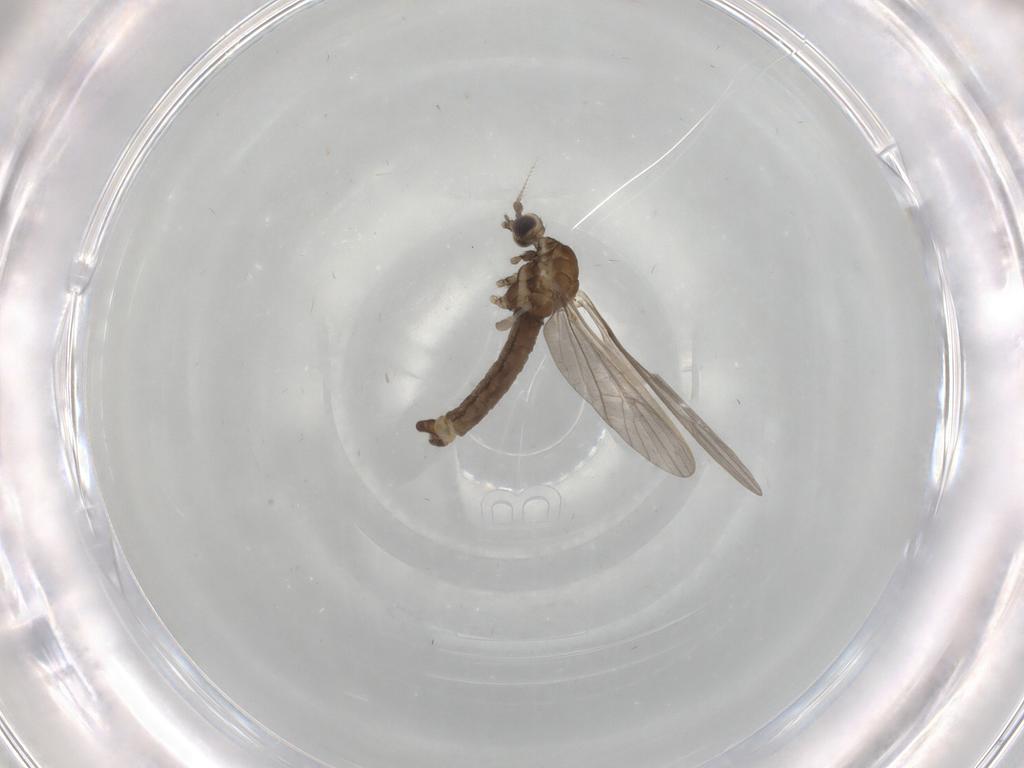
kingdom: Animalia
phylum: Arthropoda
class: Insecta
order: Diptera
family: Limoniidae
